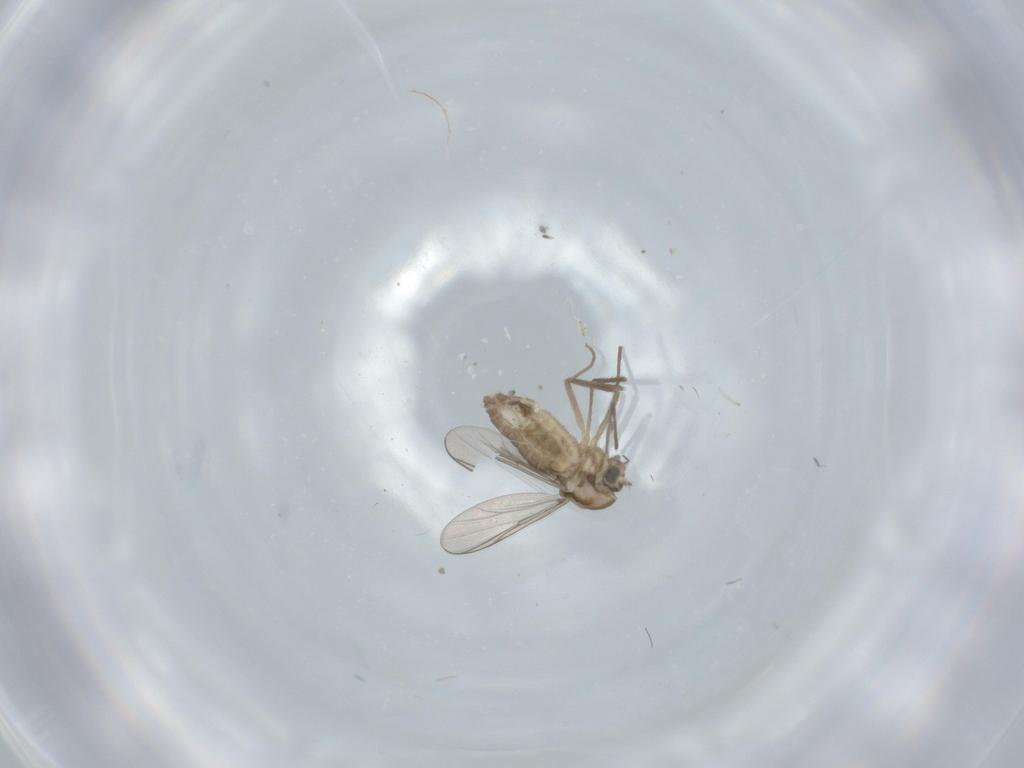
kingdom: Animalia
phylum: Arthropoda
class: Insecta
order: Diptera
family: Chironomidae
